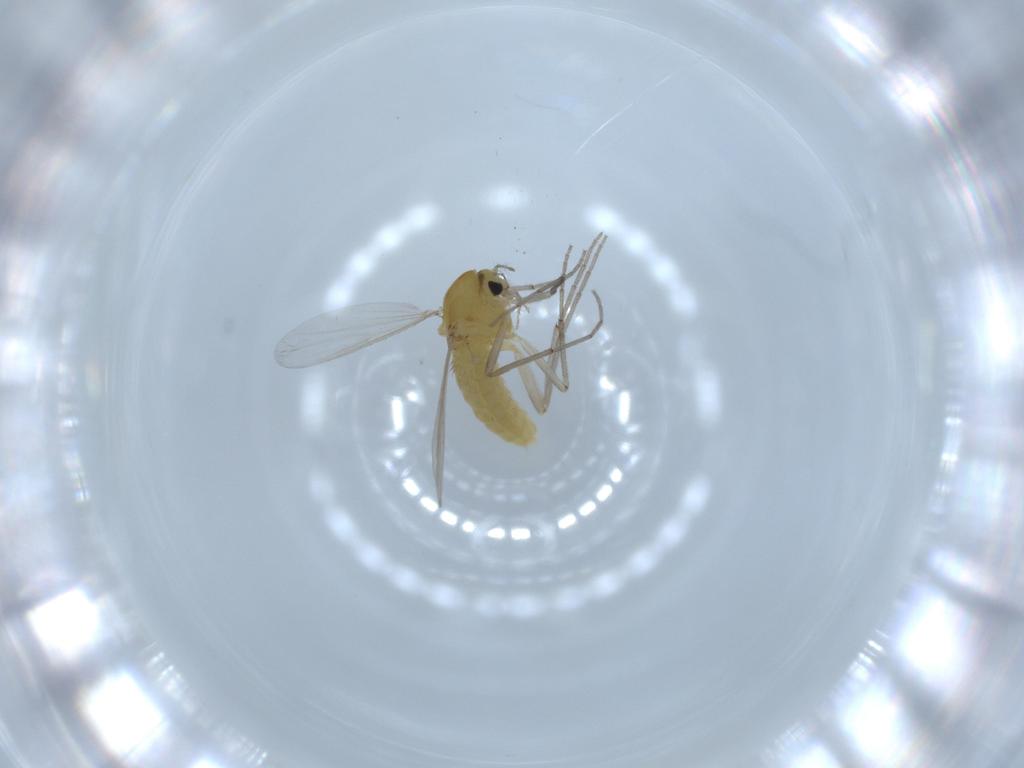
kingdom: Animalia
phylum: Arthropoda
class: Insecta
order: Diptera
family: Chironomidae
